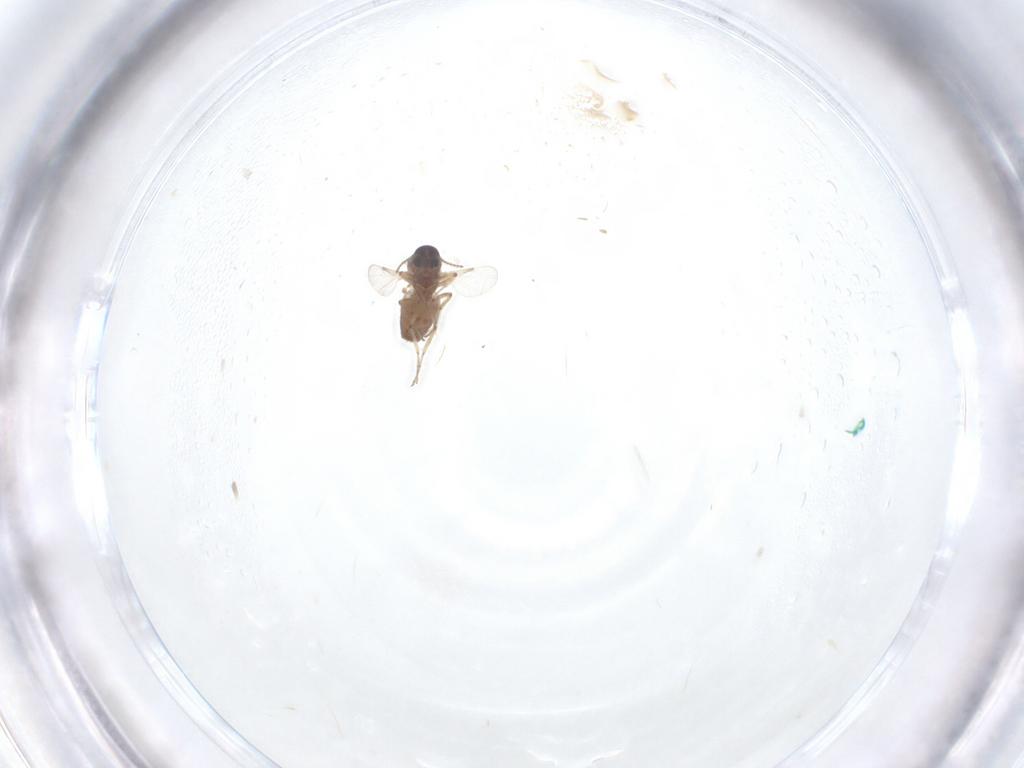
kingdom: Animalia
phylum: Arthropoda
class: Insecta
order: Diptera
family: Ceratopogonidae
